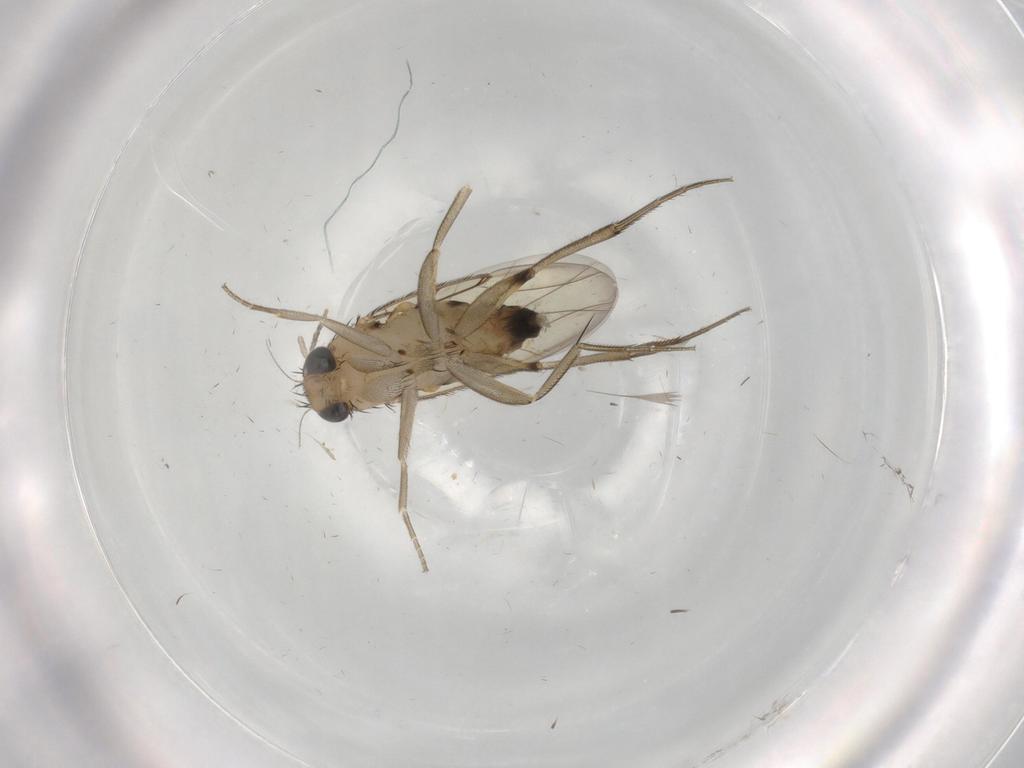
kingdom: Animalia
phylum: Arthropoda
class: Insecta
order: Diptera
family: Phoridae
